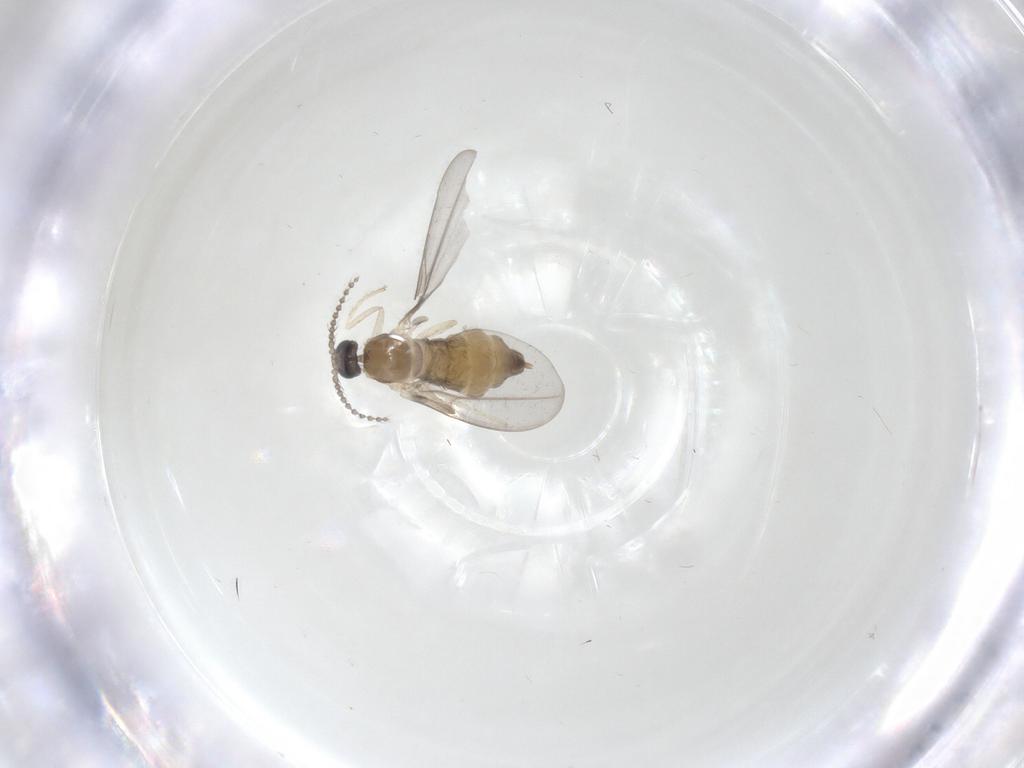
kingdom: Animalia
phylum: Arthropoda
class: Insecta
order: Diptera
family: Cecidomyiidae
